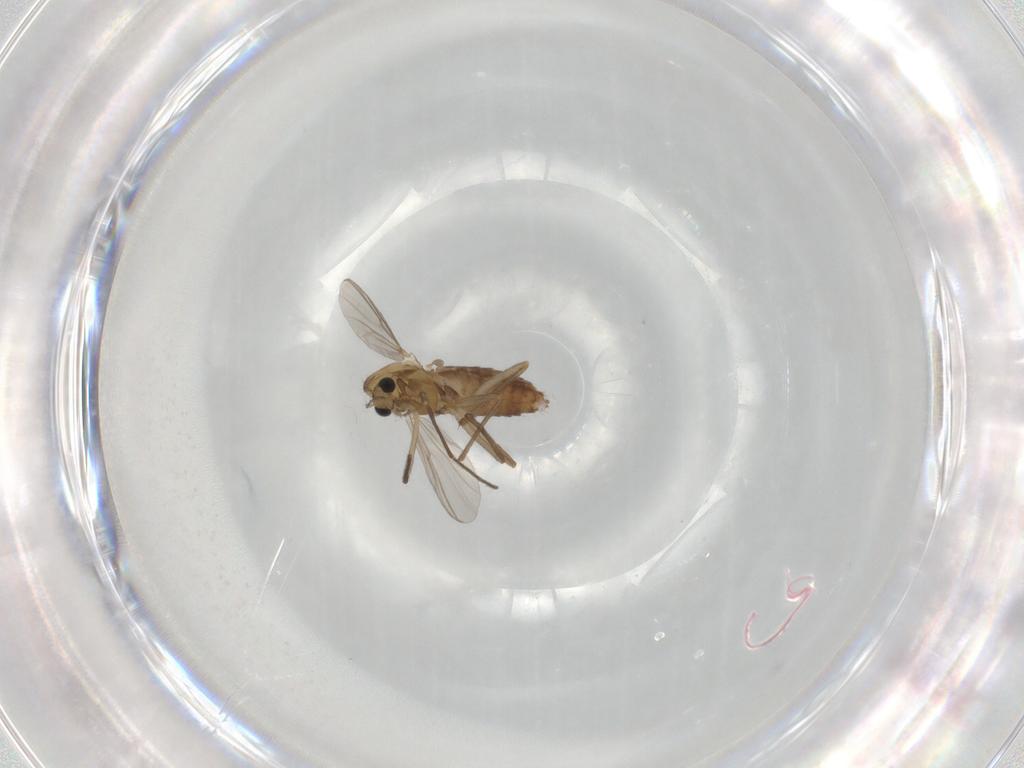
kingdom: Animalia
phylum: Arthropoda
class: Insecta
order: Diptera
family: Chironomidae
